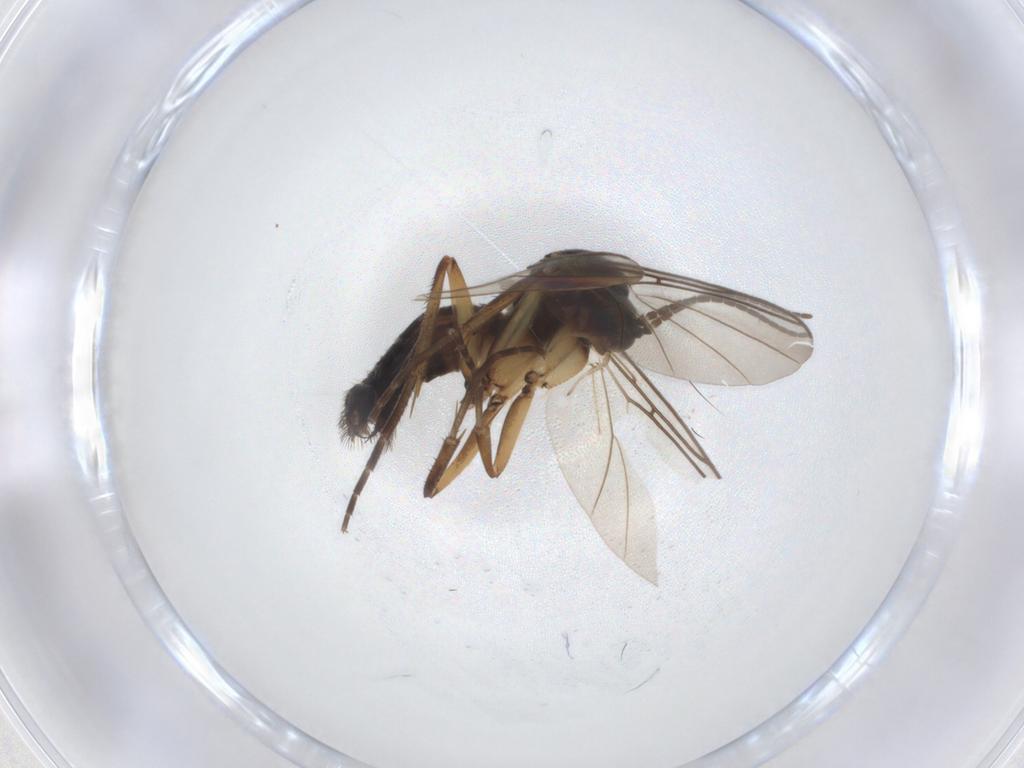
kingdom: Animalia
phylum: Arthropoda
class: Insecta
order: Diptera
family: Mycetophilidae
